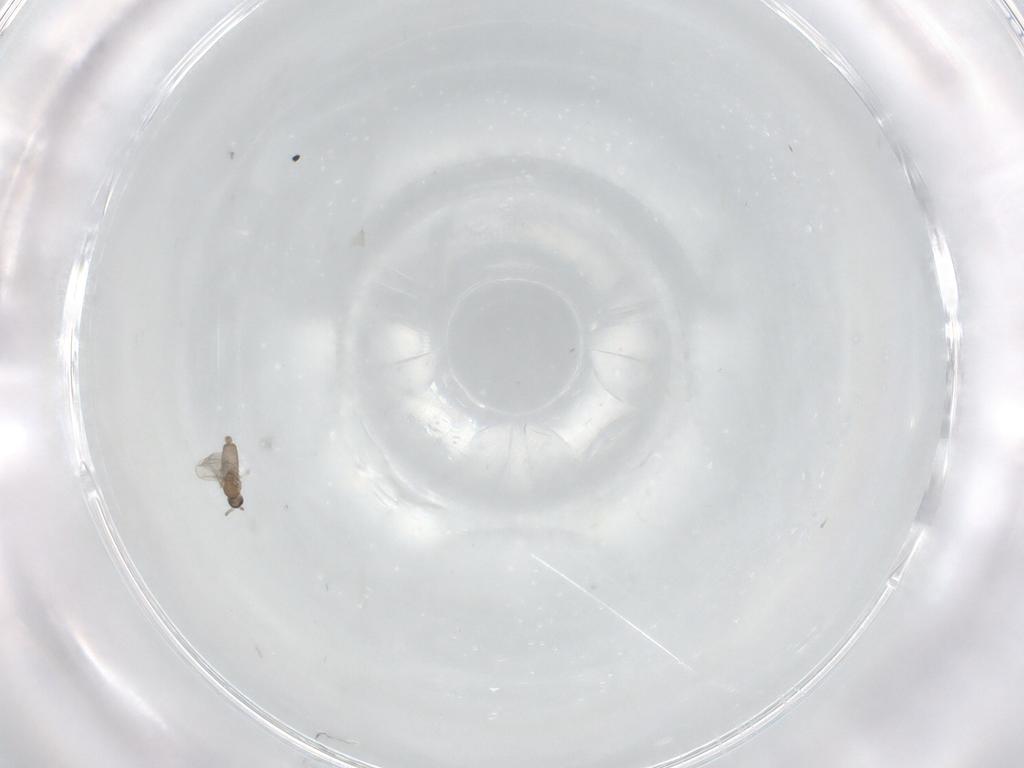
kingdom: Animalia
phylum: Arthropoda
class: Insecta
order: Diptera
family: Cecidomyiidae
